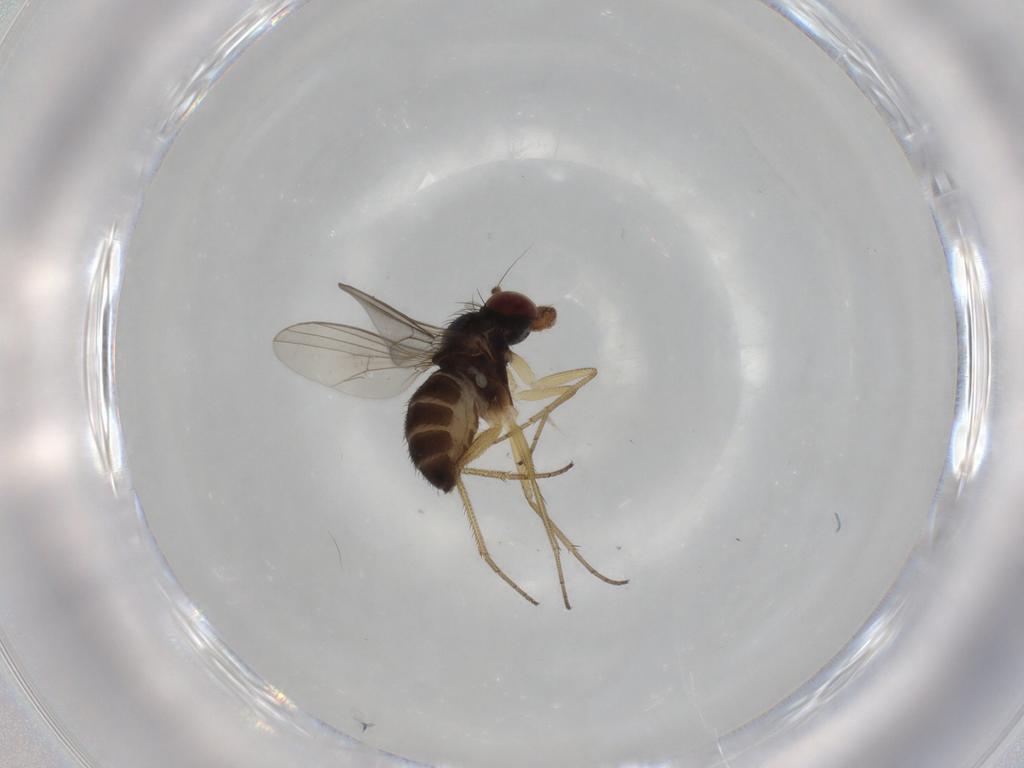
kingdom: Animalia
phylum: Arthropoda
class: Insecta
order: Diptera
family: Dolichopodidae
